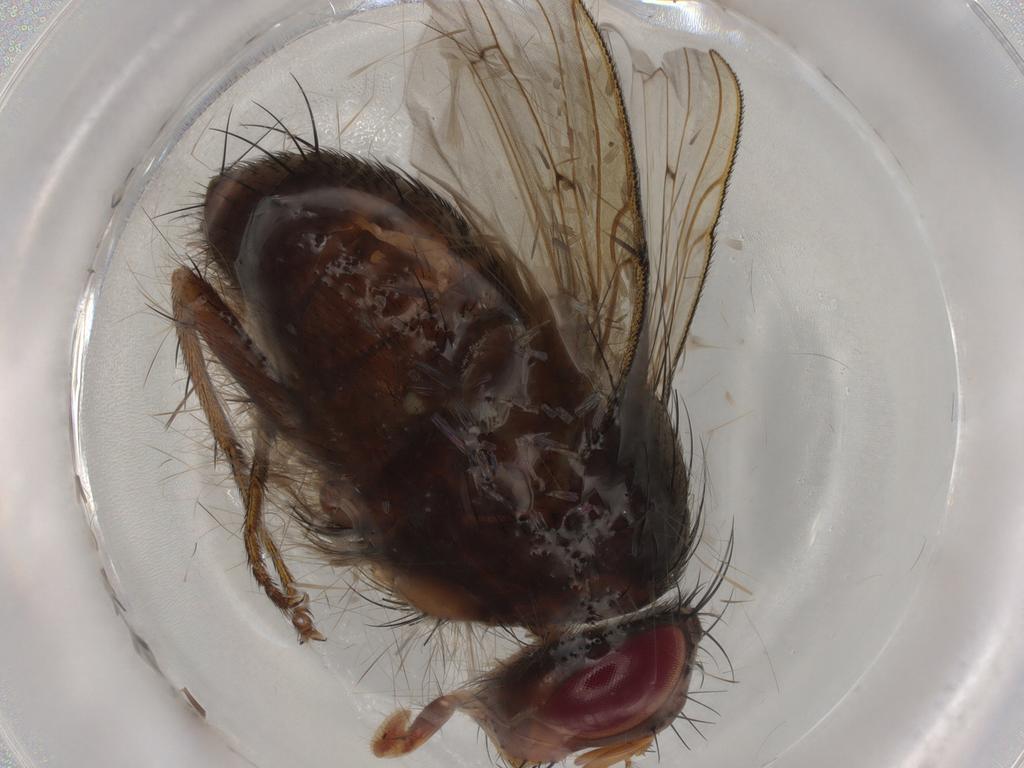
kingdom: Animalia
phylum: Arthropoda
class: Insecta
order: Diptera
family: Tachinidae
